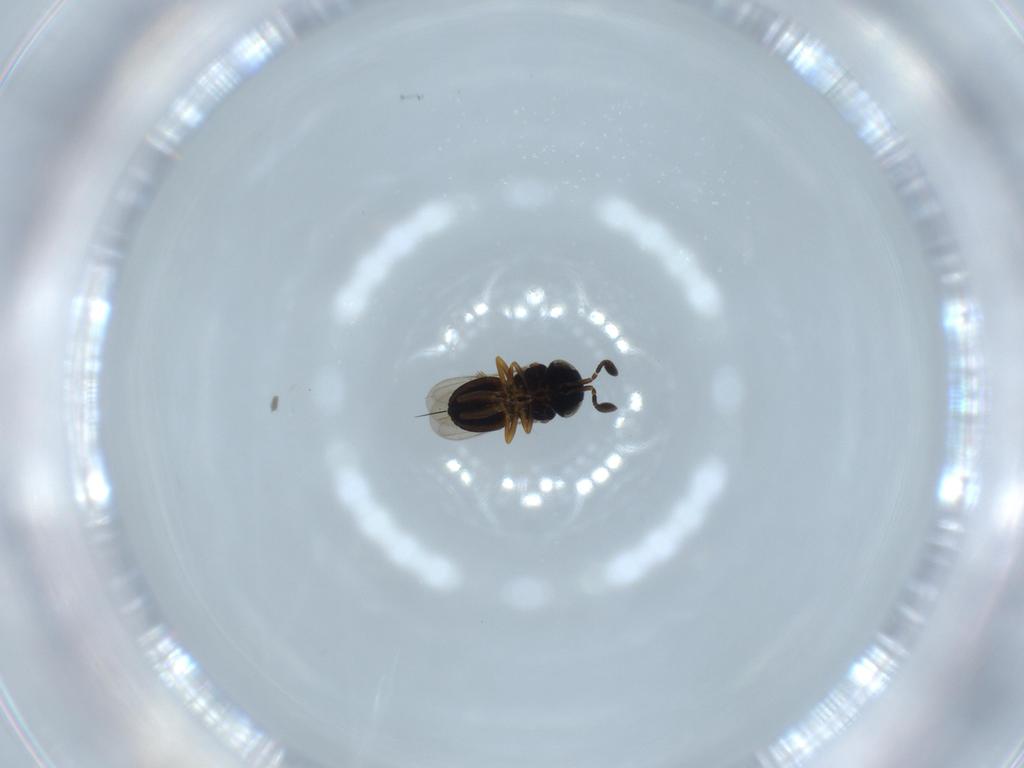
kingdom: Animalia
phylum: Arthropoda
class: Insecta
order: Hymenoptera
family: Scelionidae
